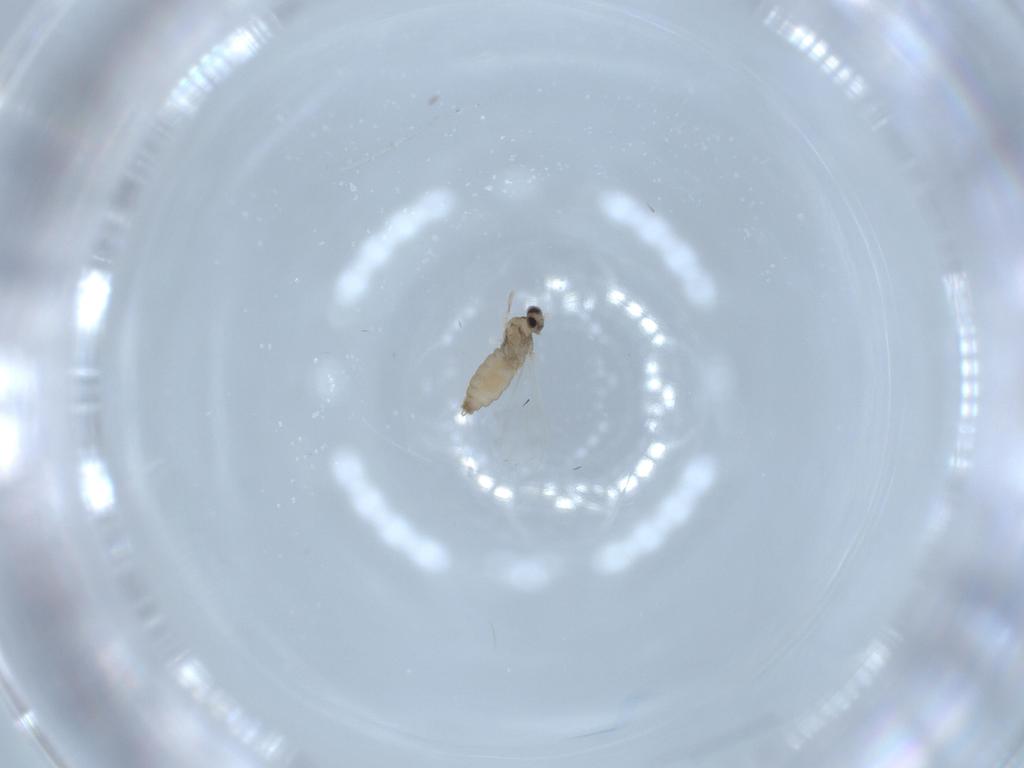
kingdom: Animalia
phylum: Arthropoda
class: Insecta
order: Diptera
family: Cecidomyiidae
